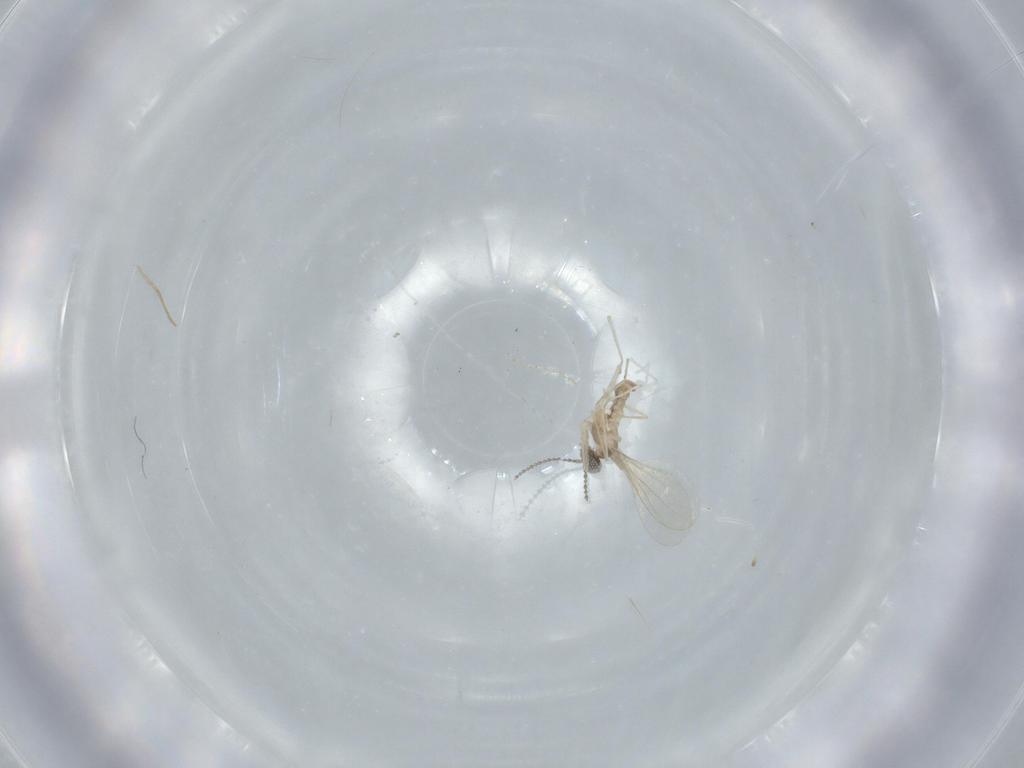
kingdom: Animalia
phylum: Arthropoda
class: Insecta
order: Diptera
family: Cecidomyiidae
